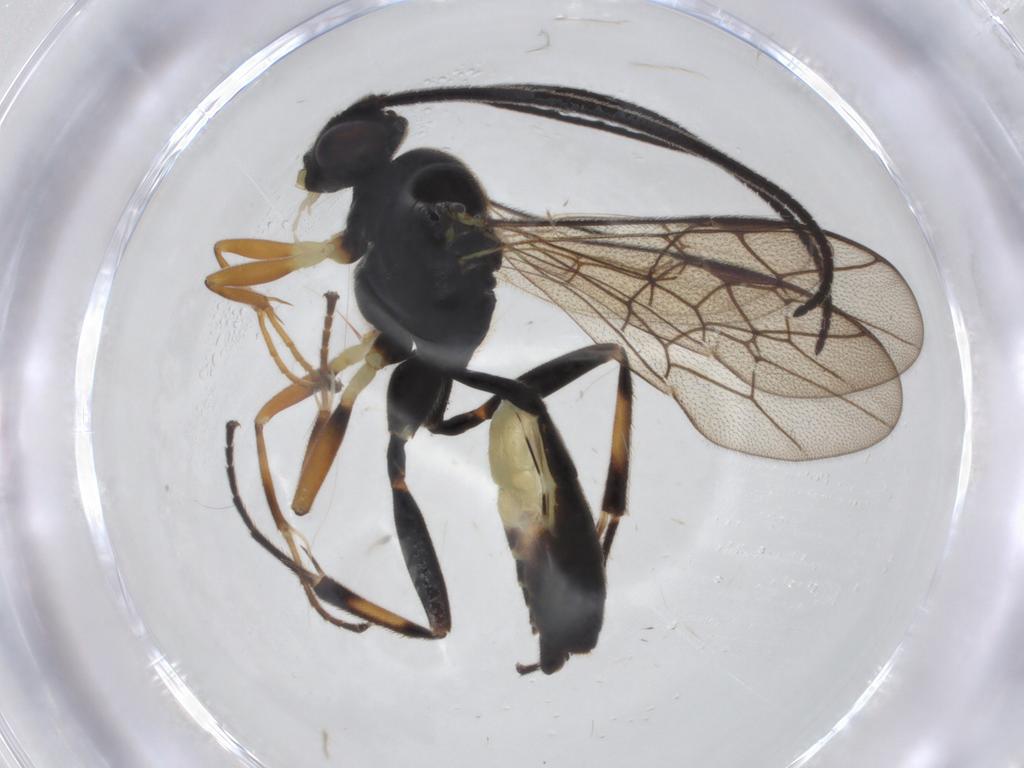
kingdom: Animalia
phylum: Arthropoda
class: Insecta
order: Hymenoptera
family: Ichneumonidae
